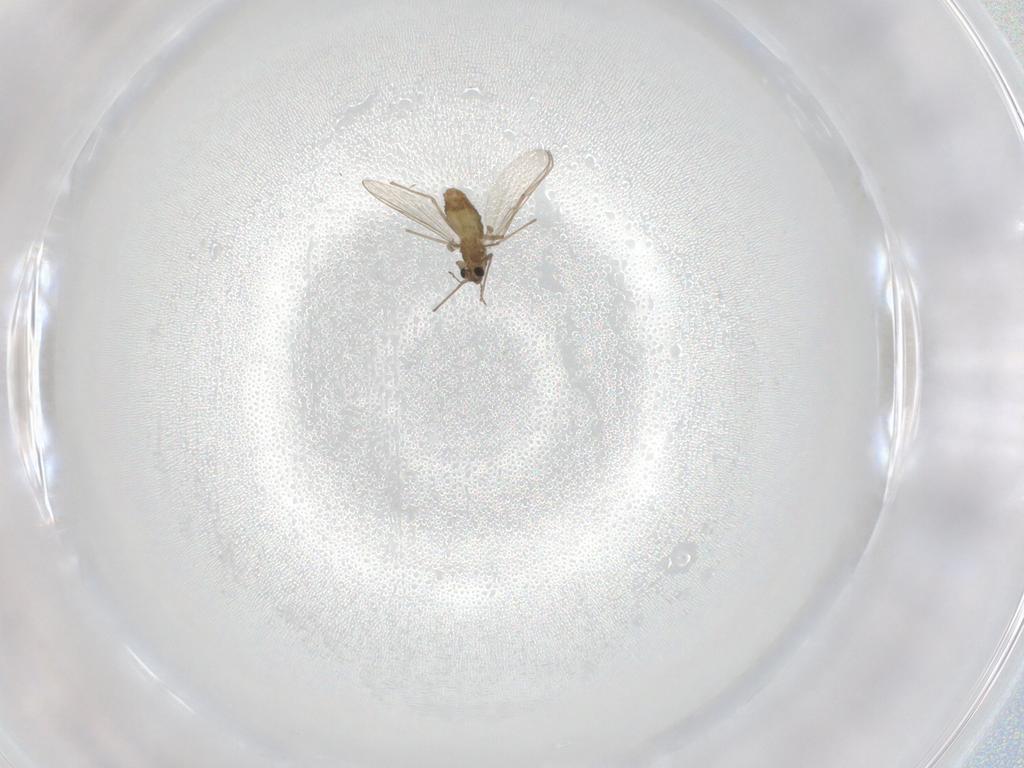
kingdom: Animalia
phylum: Arthropoda
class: Insecta
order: Diptera
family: Chironomidae
